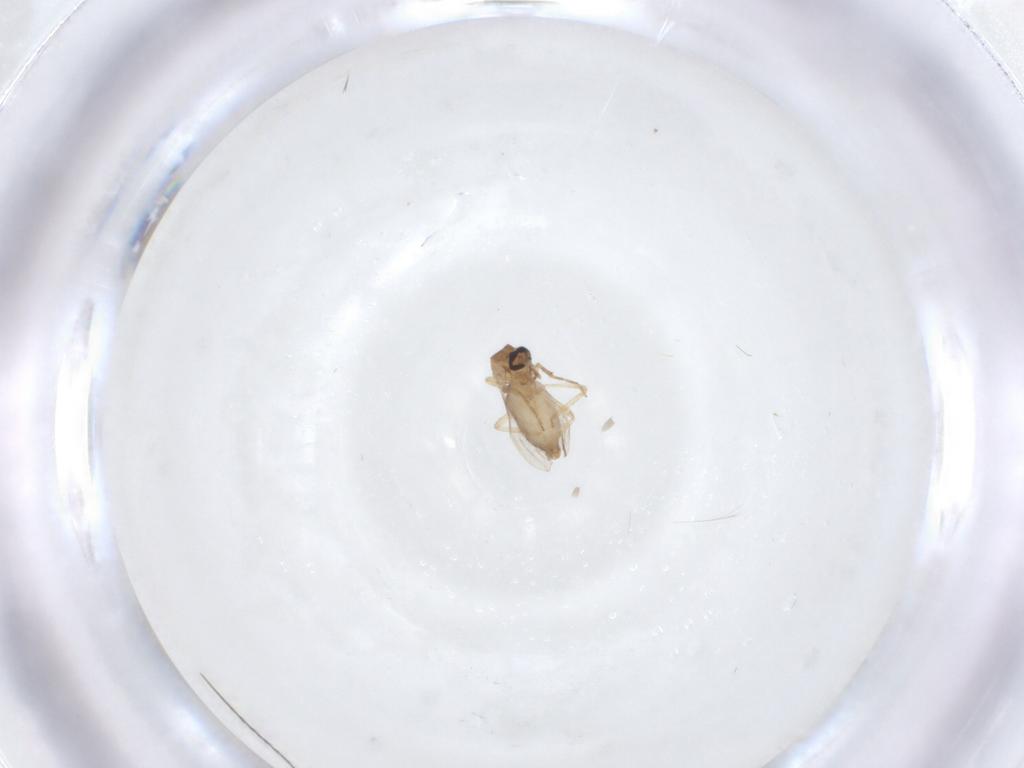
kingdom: Animalia
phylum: Arthropoda
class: Insecta
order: Diptera
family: Ceratopogonidae
